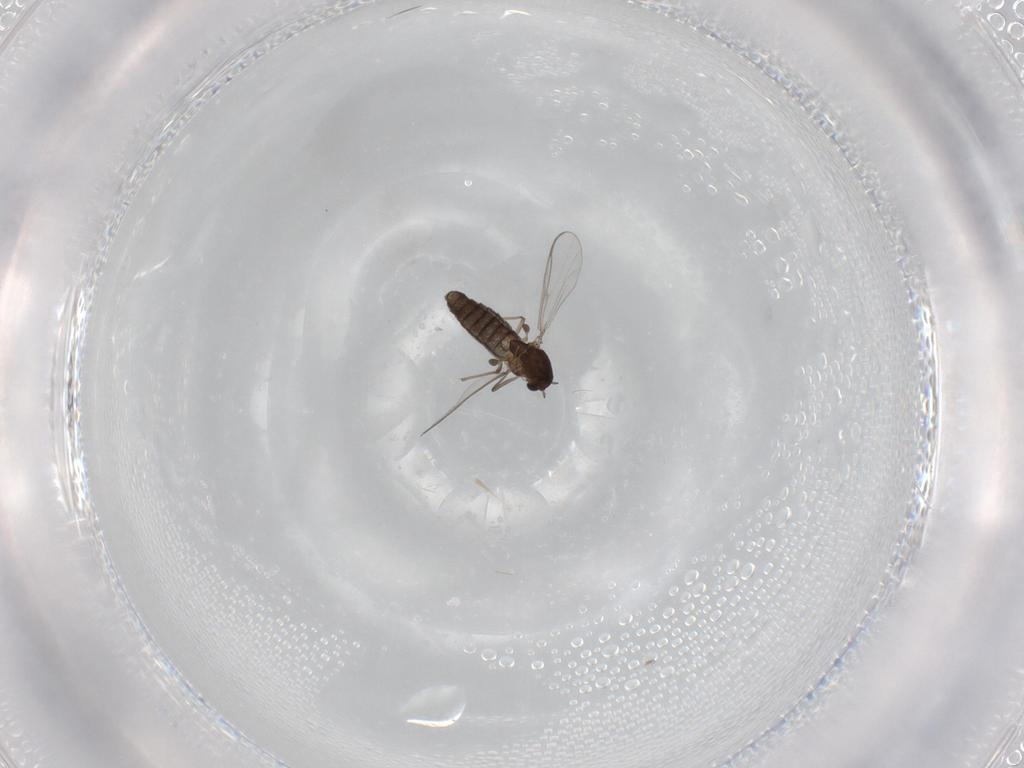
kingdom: Animalia
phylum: Arthropoda
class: Insecta
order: Diptera
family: Chironomidae
